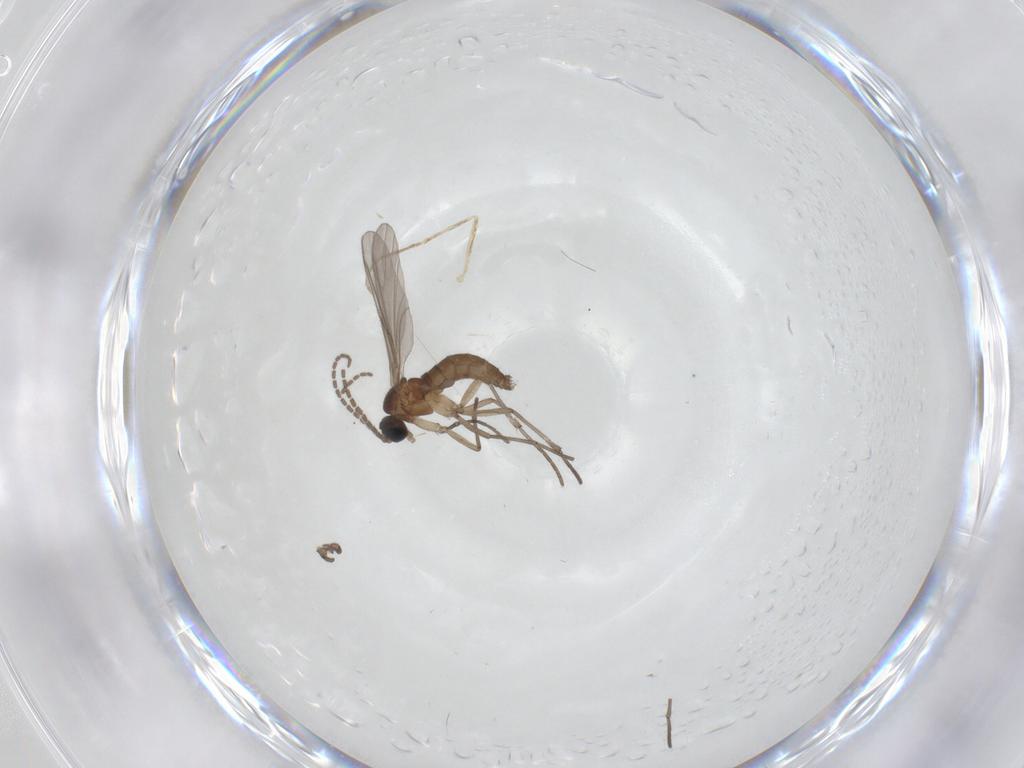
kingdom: Animalia
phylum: Arthropoda
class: Insecta
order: Diptera
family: Sciaridae
